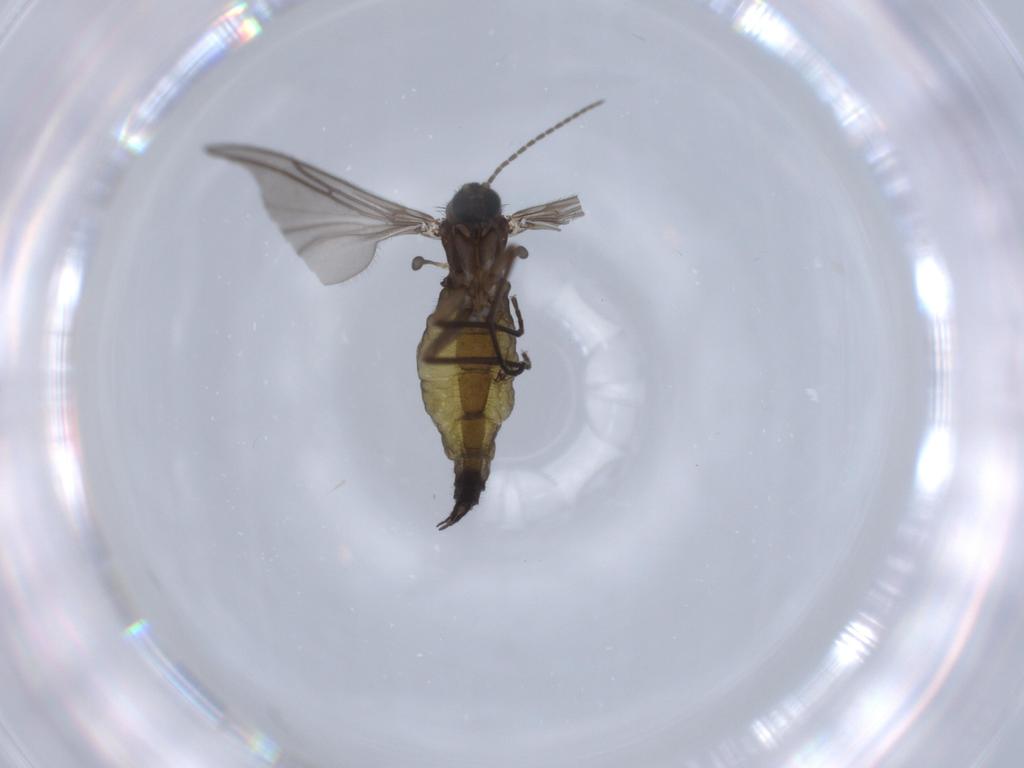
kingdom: Animalia
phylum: Arthropoda
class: Insecta
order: Diptera
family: Sciaridae
